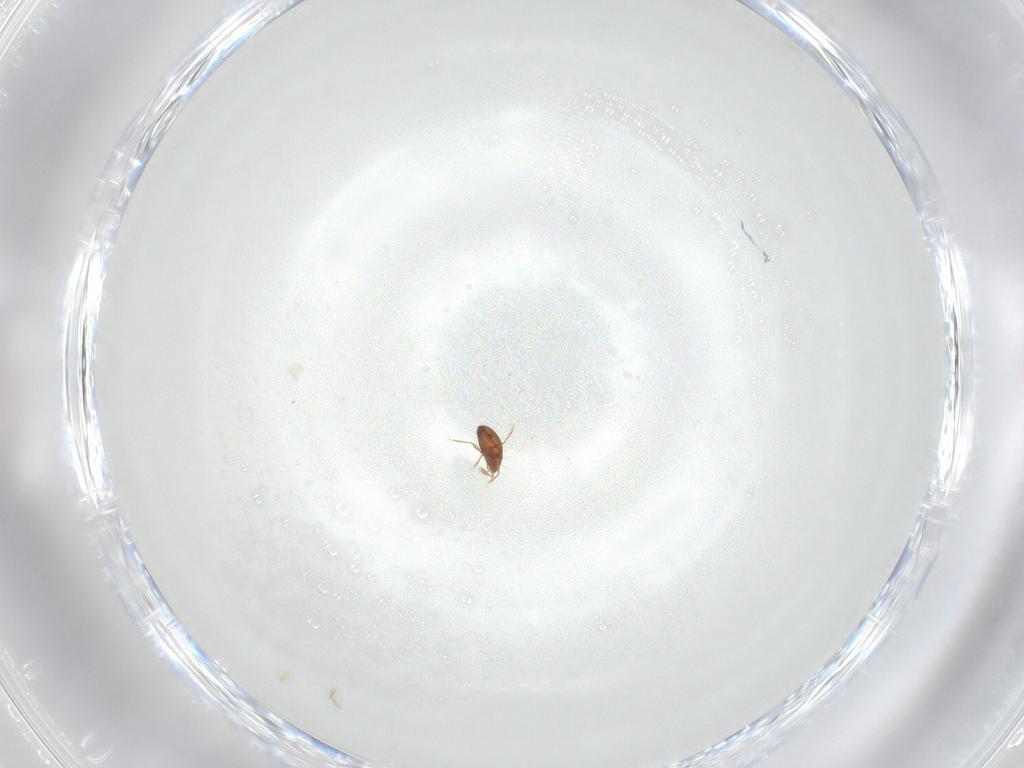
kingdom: Animalia
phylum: Arthropoda
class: Arachnida
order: Sarcoptiformes
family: Oribatulidae
